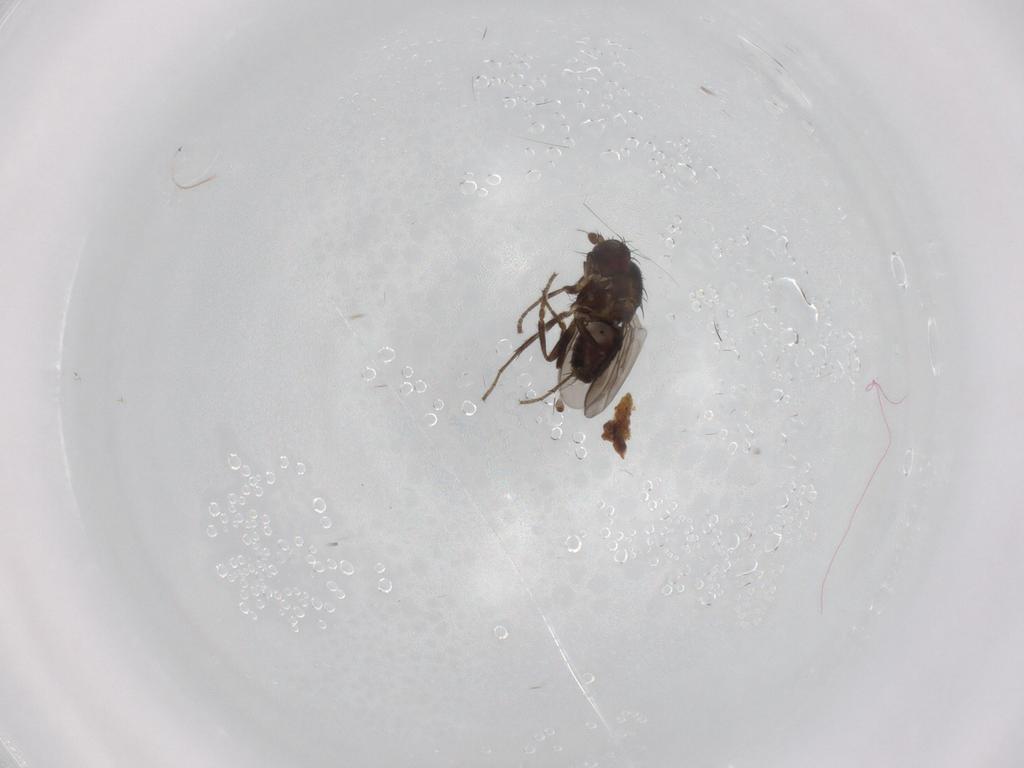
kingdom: Animalia
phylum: Arthropoda
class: Insecta
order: Diptera
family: Sphaeroceridae
